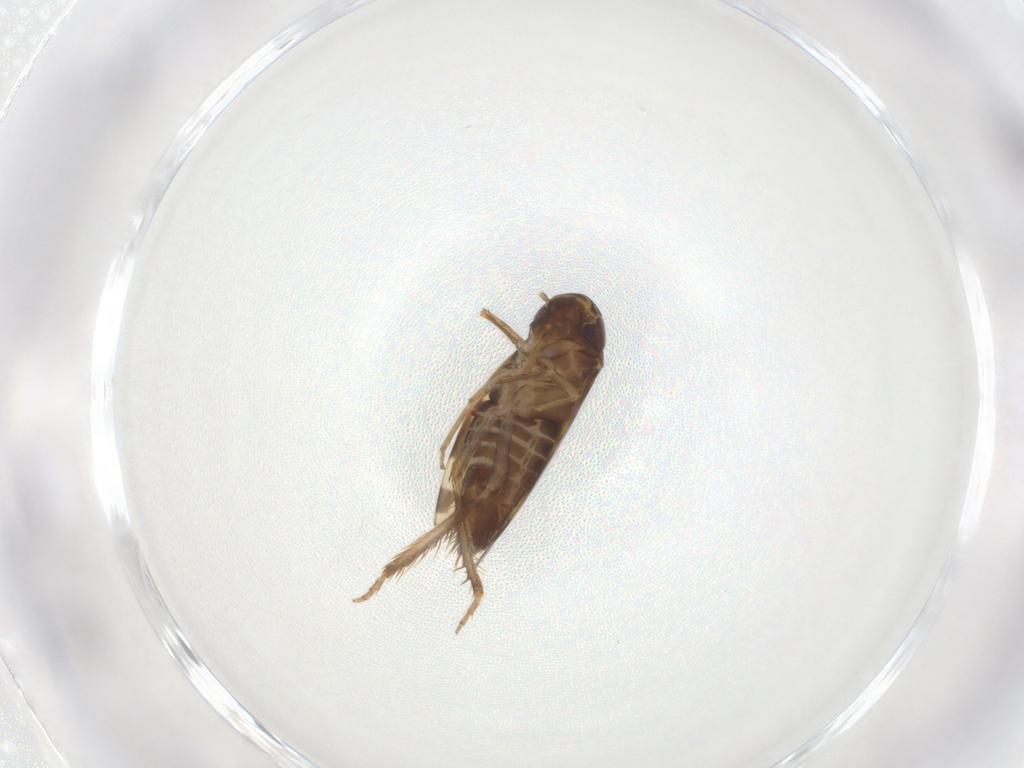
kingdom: Animalia
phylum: Arthropoda
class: Insecta
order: Hemiptera
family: Cicadellidae
